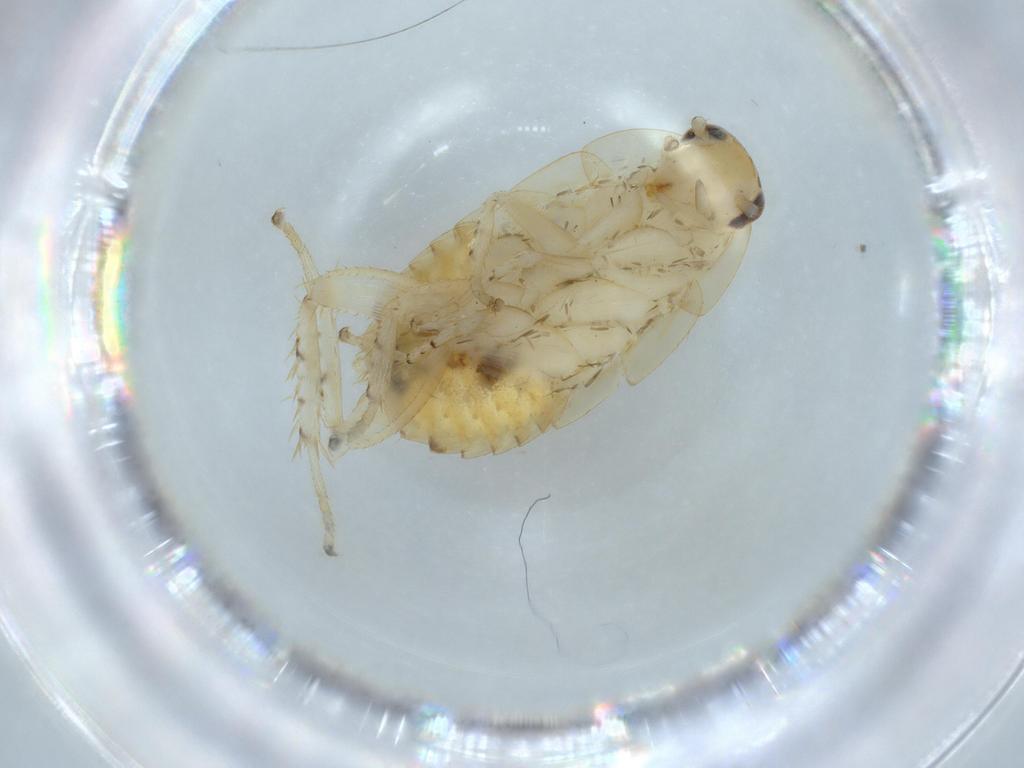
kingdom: Animalia
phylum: Arthropoda
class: Insecta
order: Blattodea
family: Ectobiidae
